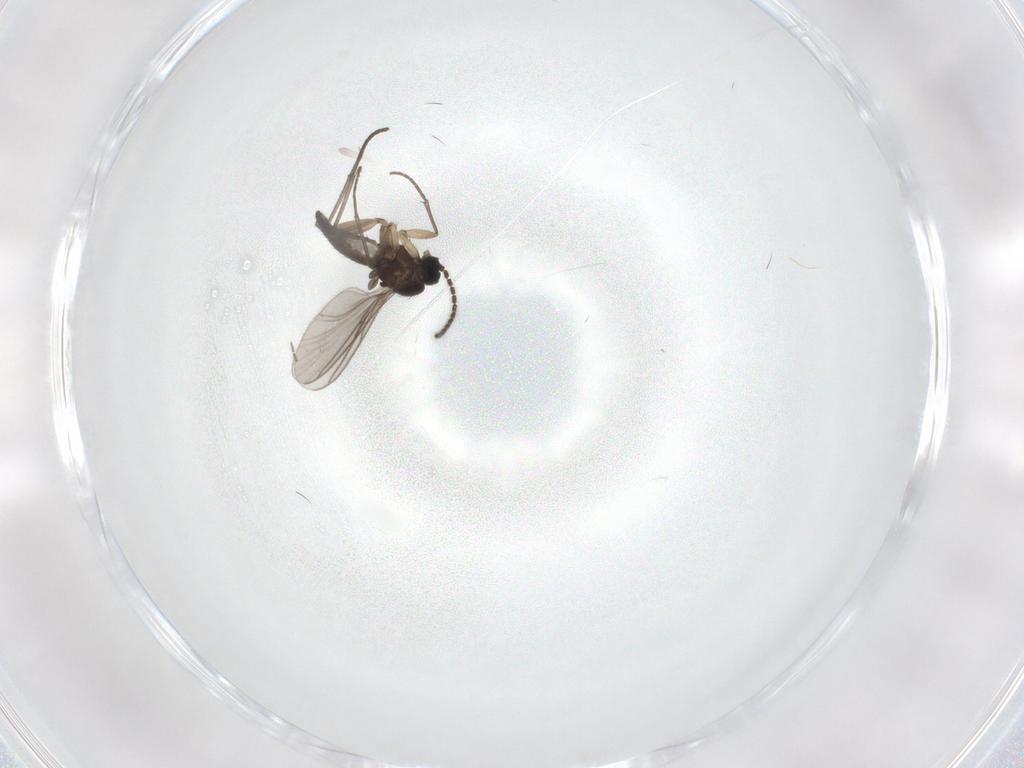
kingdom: Animalia
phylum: Arthropoda
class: Insecta
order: Diptera
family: Sciaridae
